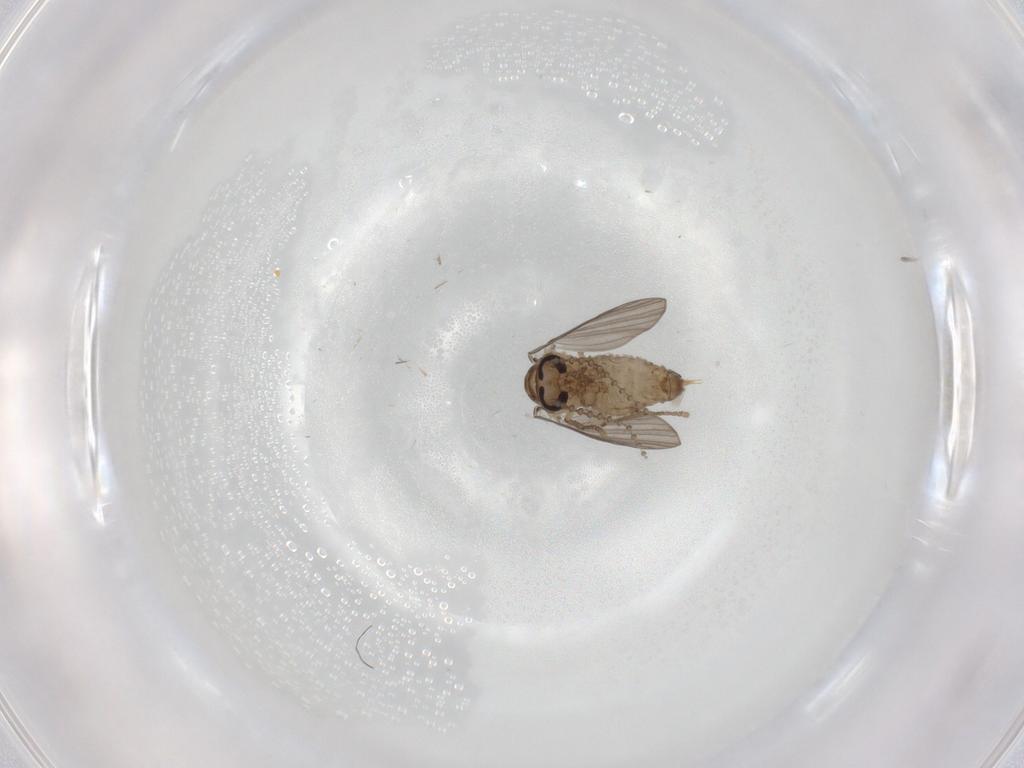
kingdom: Animalia
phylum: Arthropoda
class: Insecta
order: Diptera
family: Psychodidae
